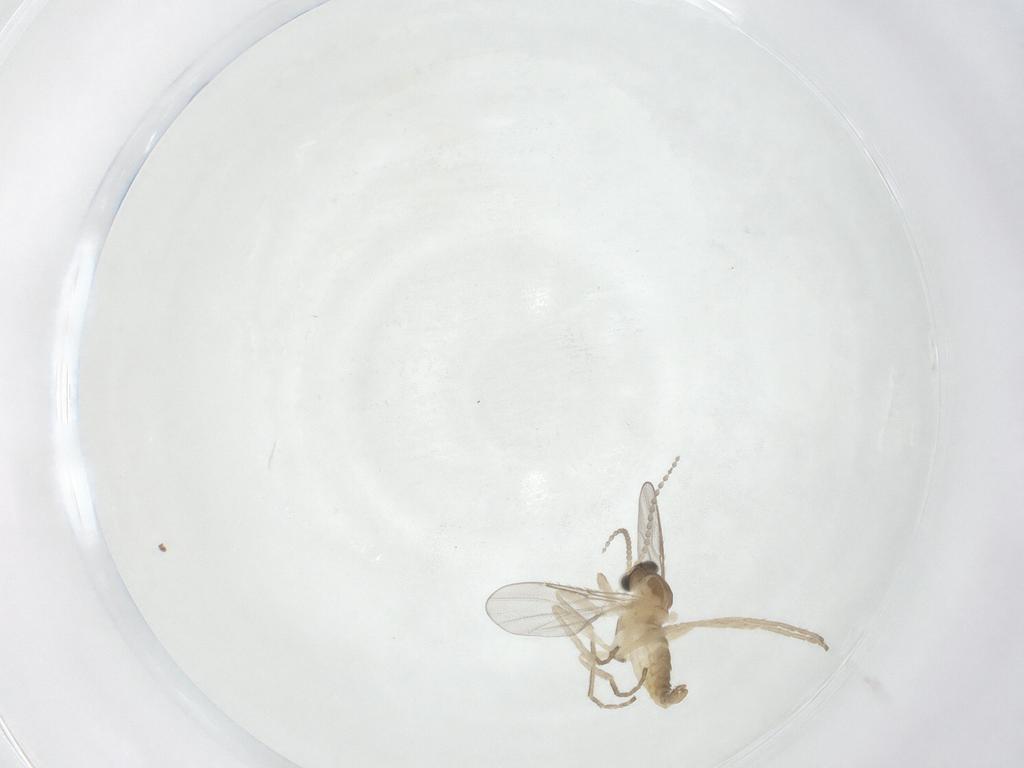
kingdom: Animalia
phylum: Arthropoda
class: Insecta
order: Diptera
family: Cecidomyiidae
